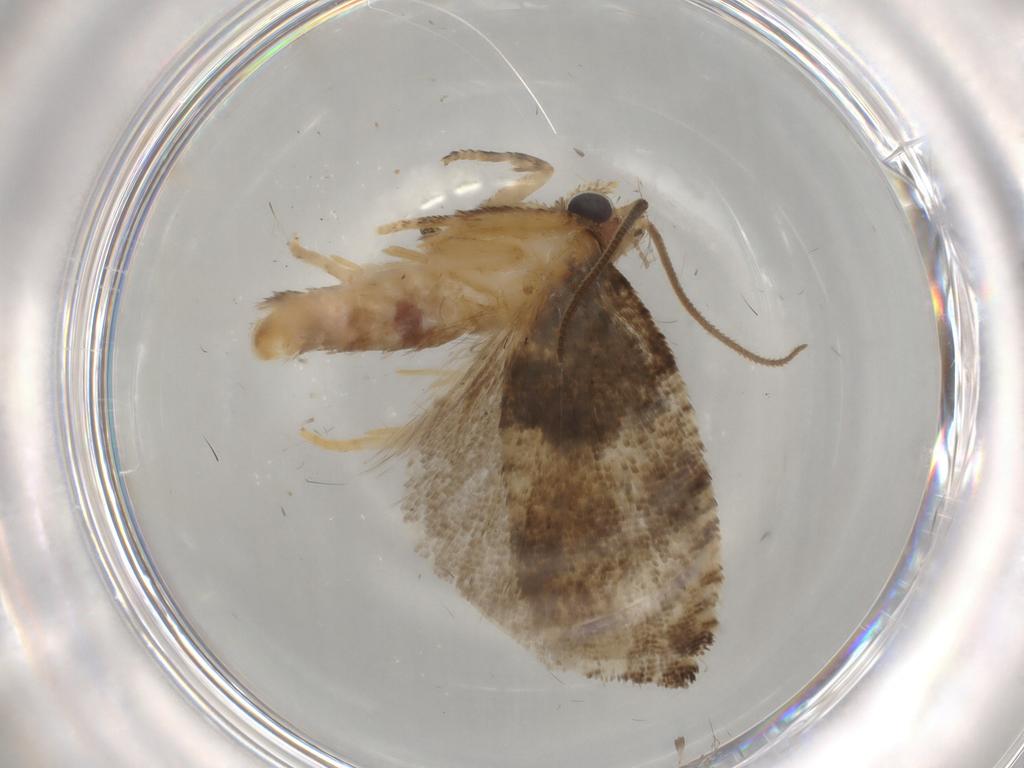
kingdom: Animalia
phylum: Arthropoda
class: Insecta
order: Lepidoptera
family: Tortricidae
